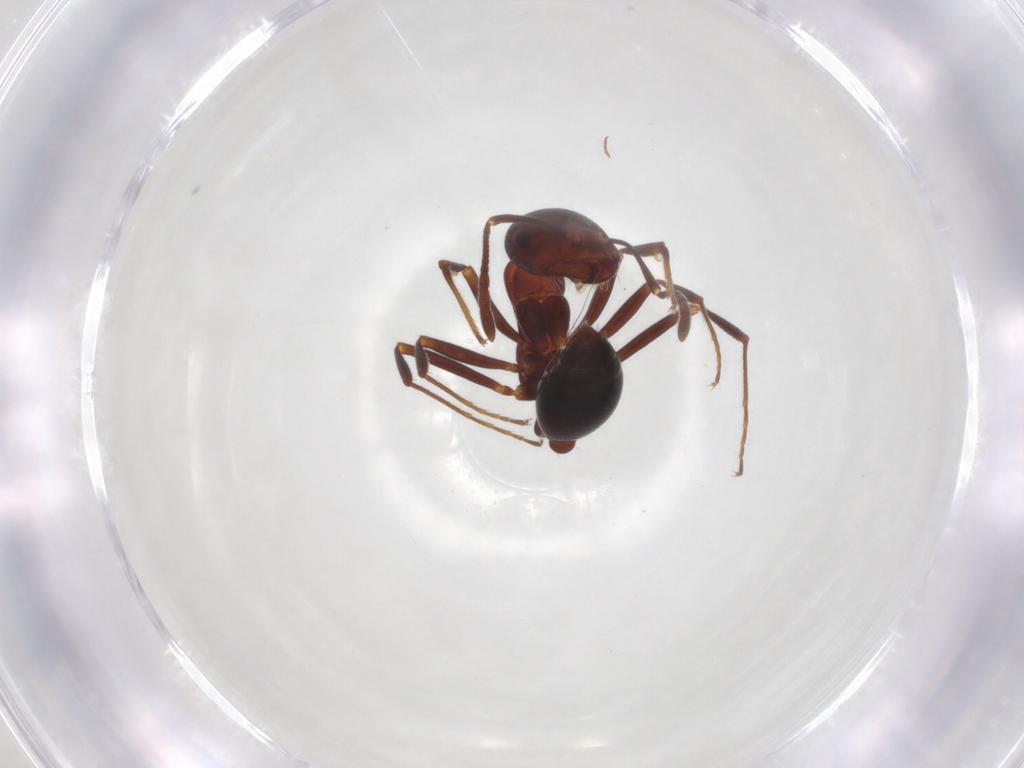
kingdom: Animalia
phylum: Arthropoda
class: Insecta
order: Hymenoptera
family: Formicidae
